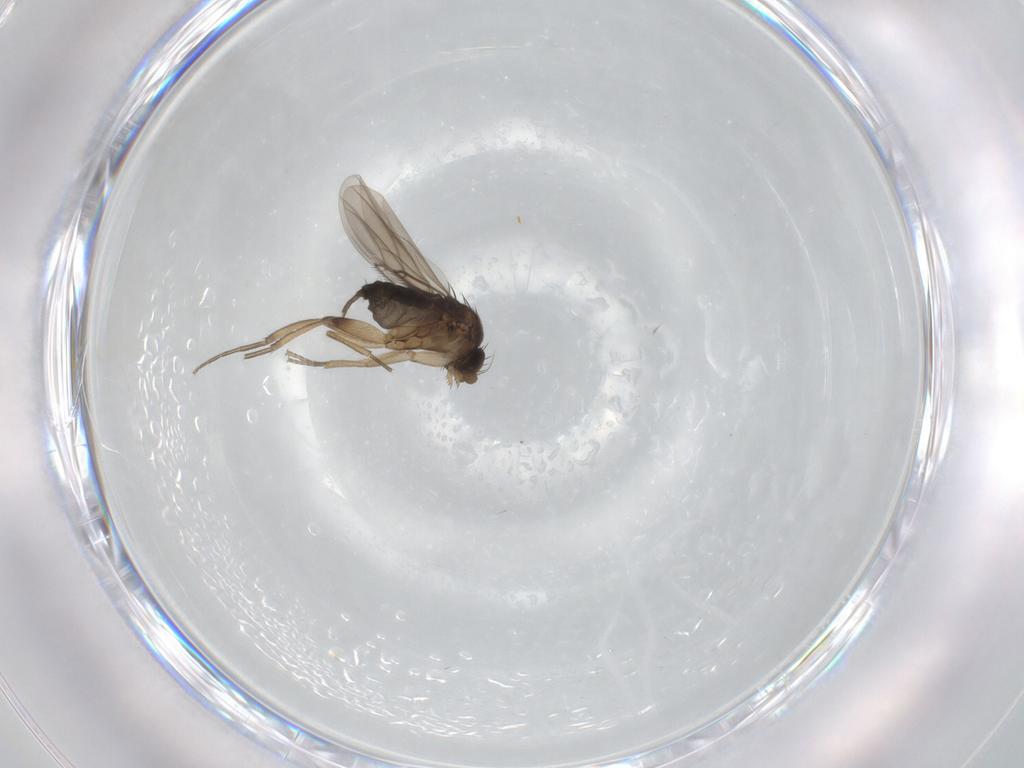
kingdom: Animalia
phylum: Arthropoda
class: Insecta
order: Diptera
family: Phoridae
